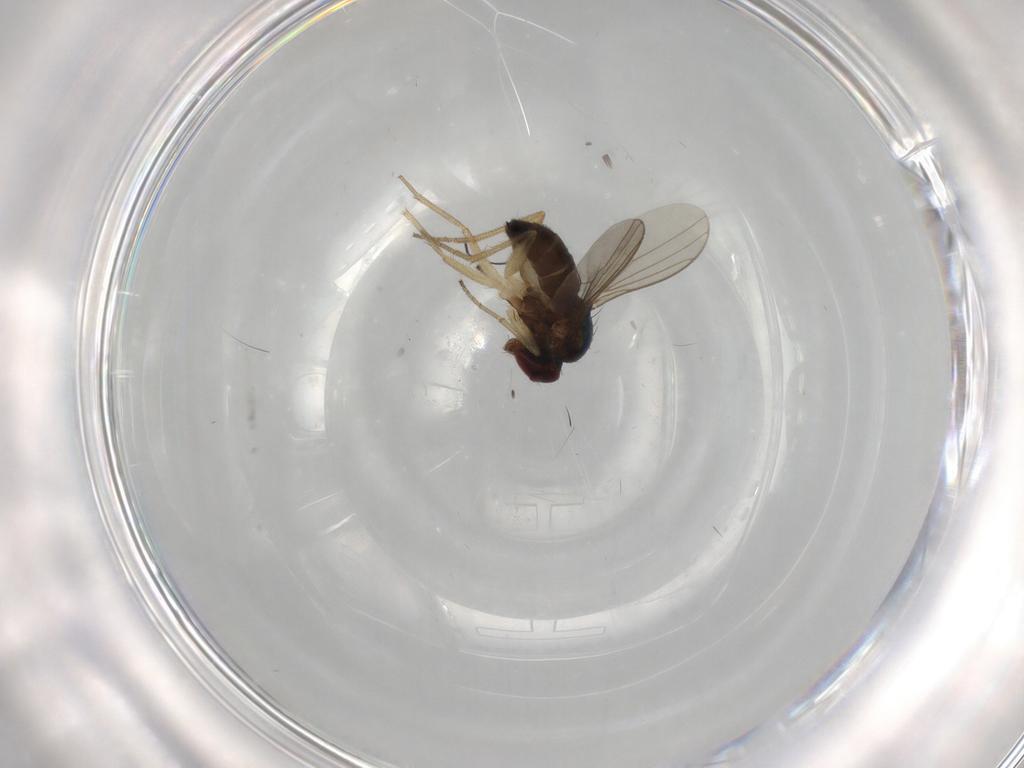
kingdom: Animalia
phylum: Arthropoda
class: Insecta
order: Diptera
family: Dolichopodidae
